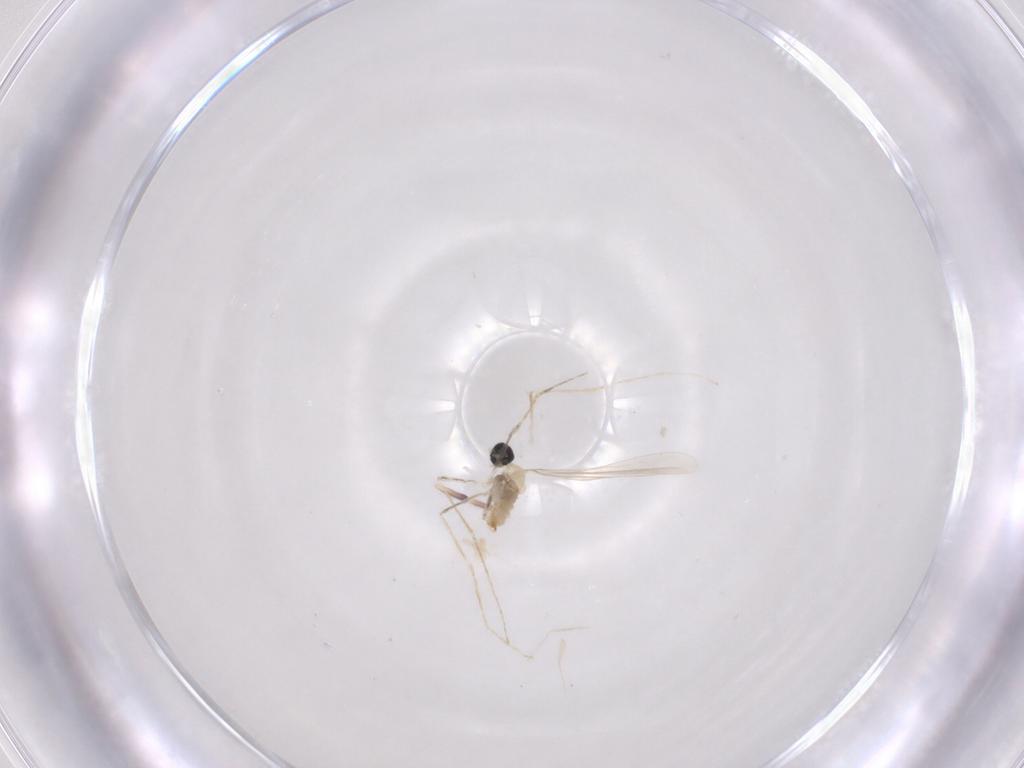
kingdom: Animalia
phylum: Arthropoda
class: Insecta
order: Diptera
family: Cecidomyiidae
